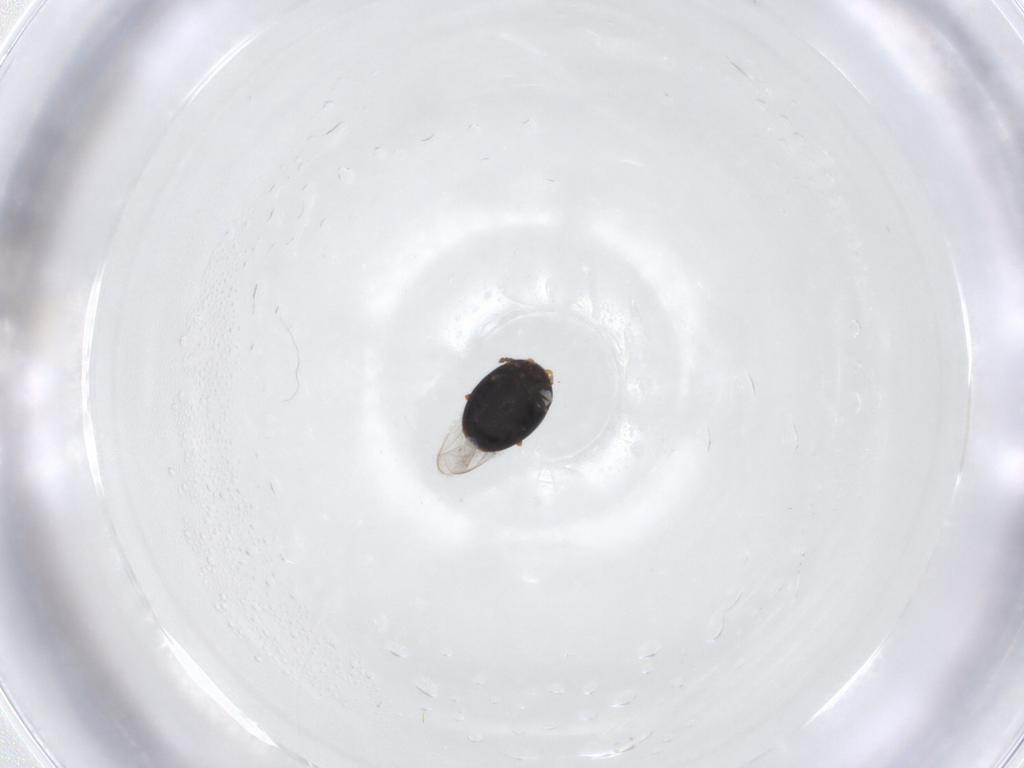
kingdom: Animalia
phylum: Arthropoda
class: Insecta
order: Coleoptera
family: Corylophidae
